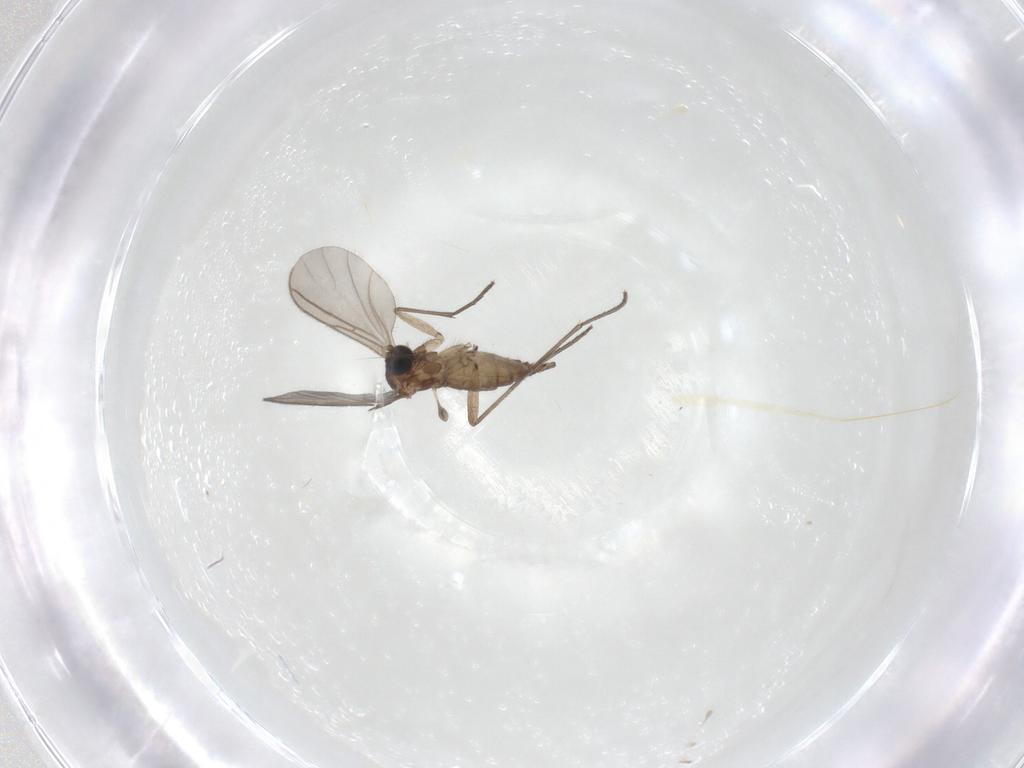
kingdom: Animalia
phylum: Arthropoda
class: Insecta
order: Diptera
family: Sciaridae
